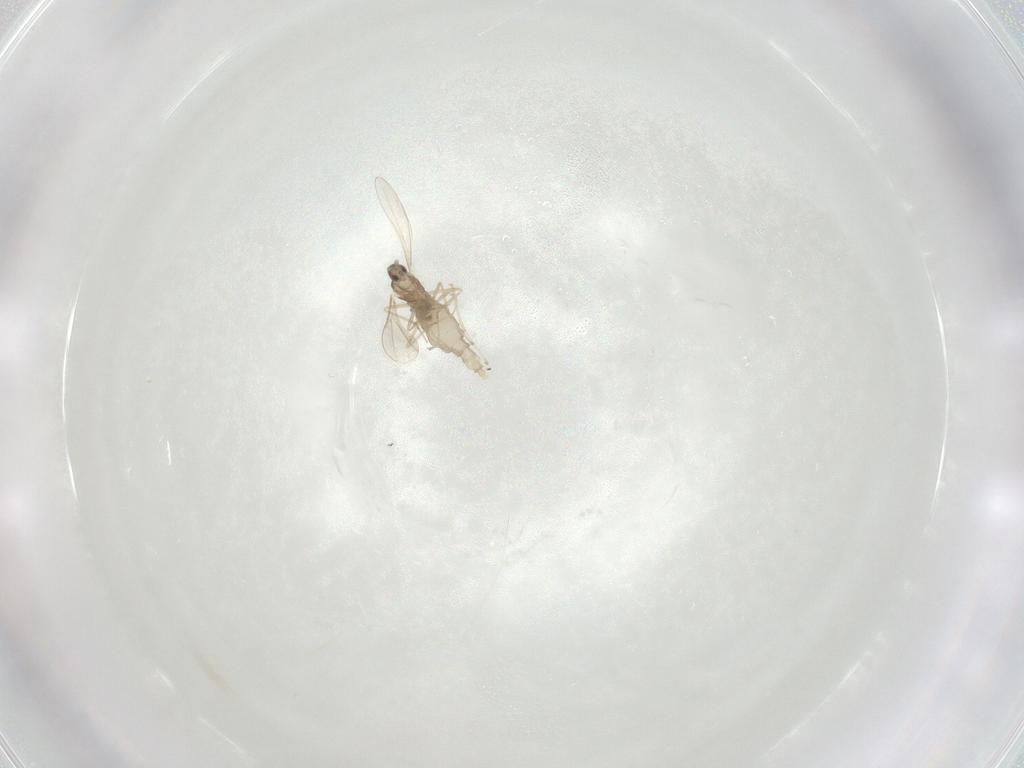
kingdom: Animalia
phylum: Arthropoda
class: Insecta
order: Diptera
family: Cecidomyiidae
